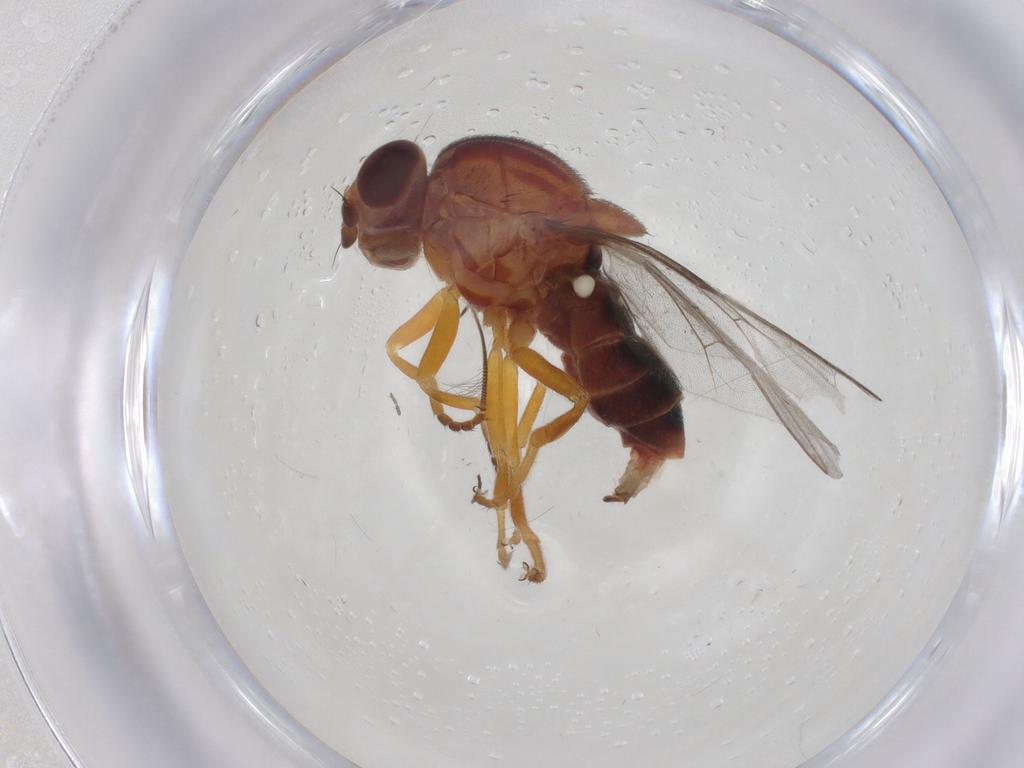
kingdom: Animalia
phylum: Arthropoda
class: Insecta
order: Diptera
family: Chloropidae
